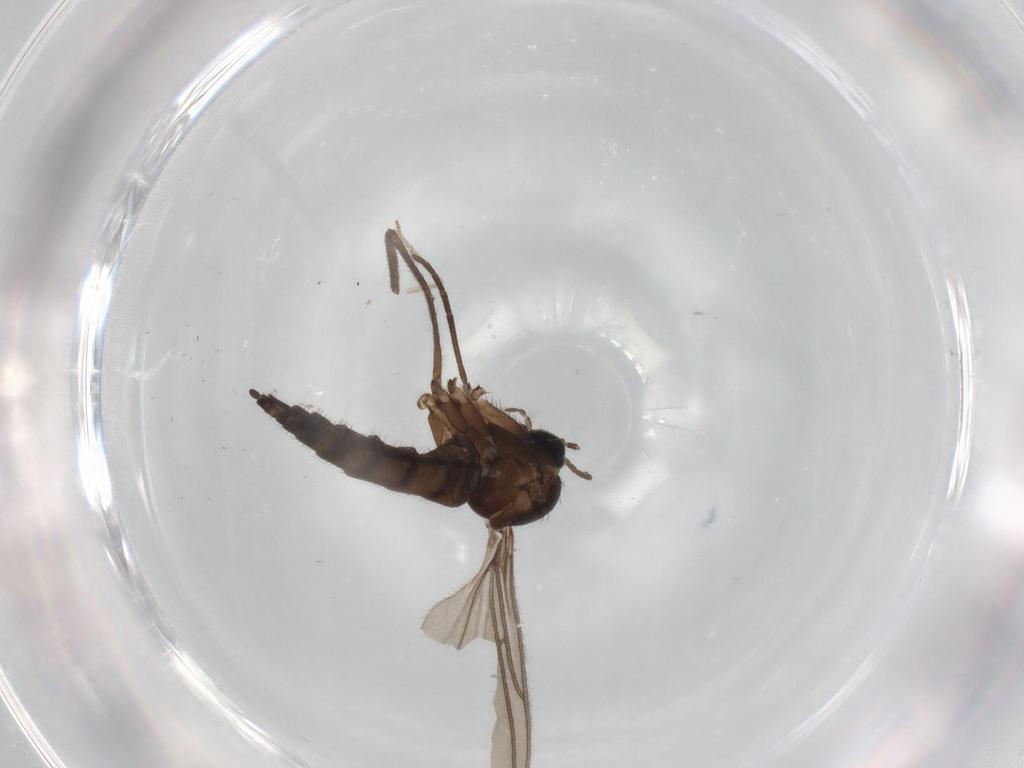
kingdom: Animalia
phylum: Arthropoda
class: Insecta
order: Diptera
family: Sciaridae
